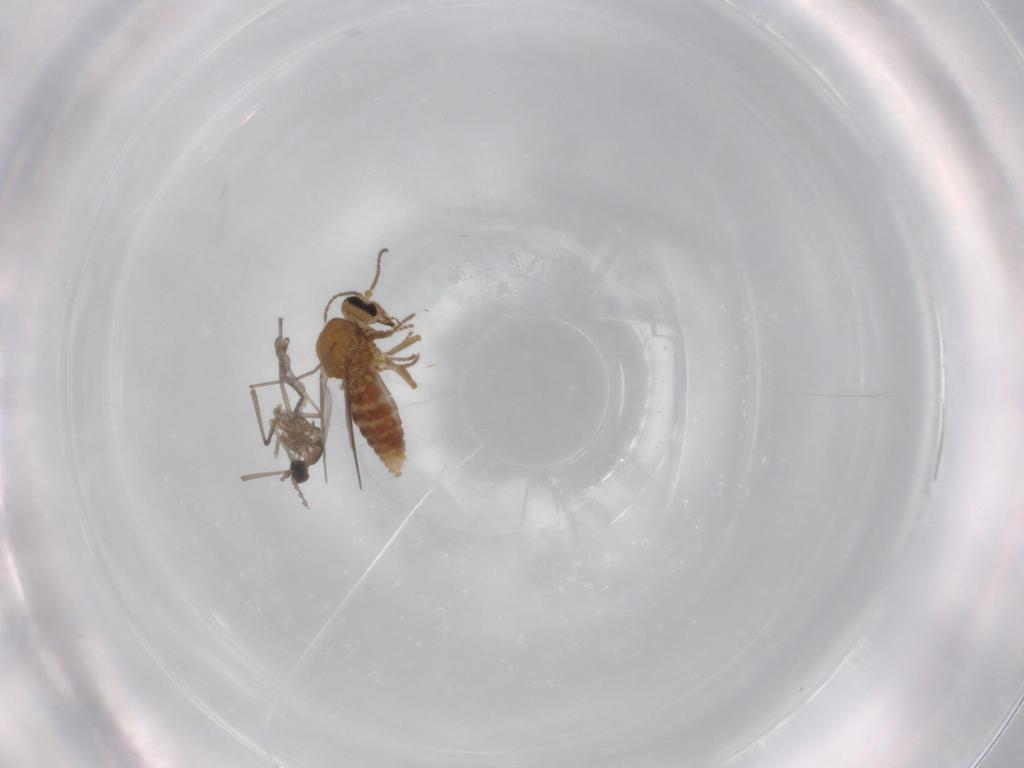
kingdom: Animalia
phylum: Arthropoda
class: Insecta
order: Diptera
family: Ceratopogonidae
